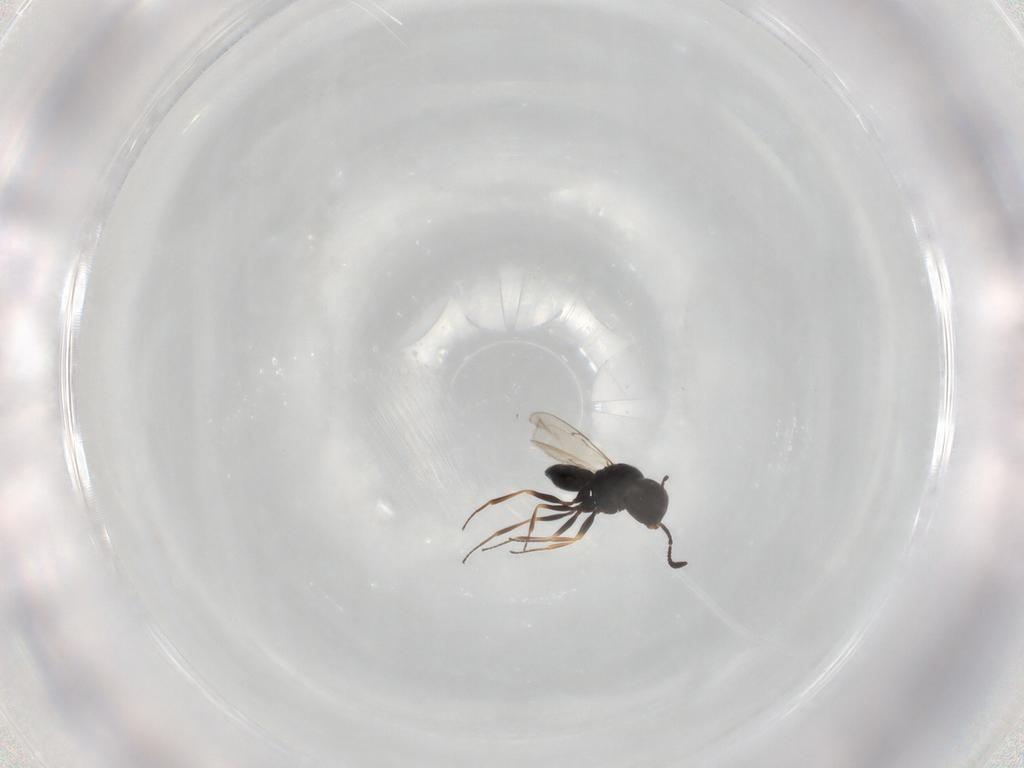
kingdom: Animalia
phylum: Arthropoda
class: Insecta
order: Hymenoptera
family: Scelionidae
